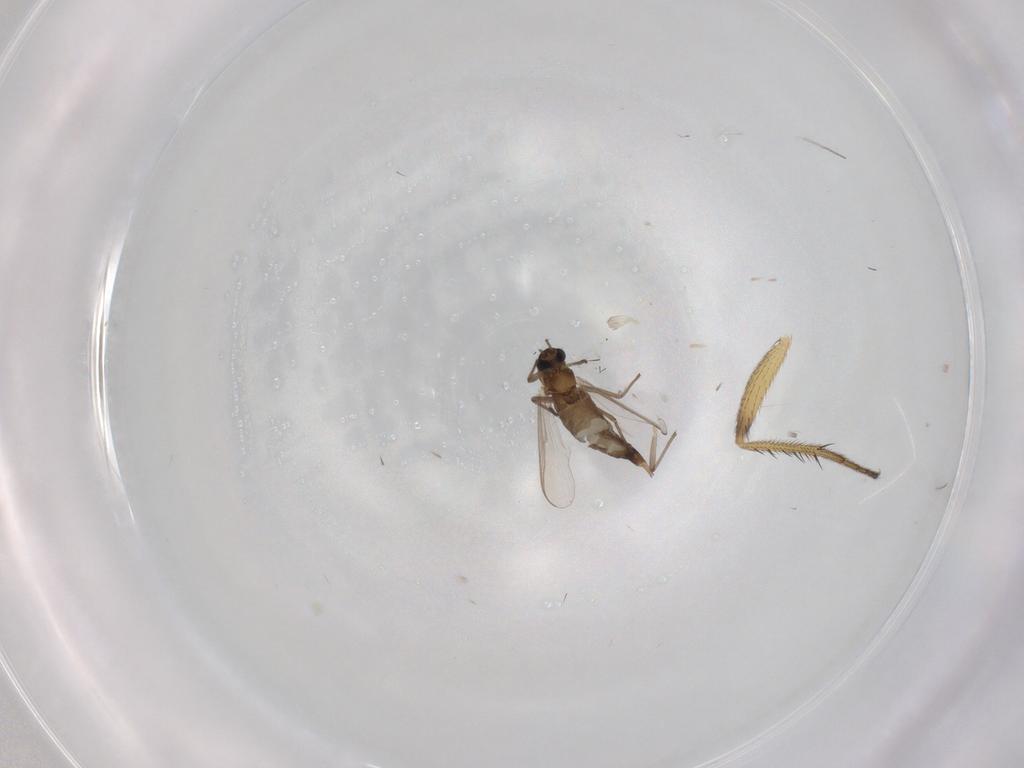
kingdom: Animalia
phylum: Arthropoda
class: Insecta
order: Diptera
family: Chironomidae
